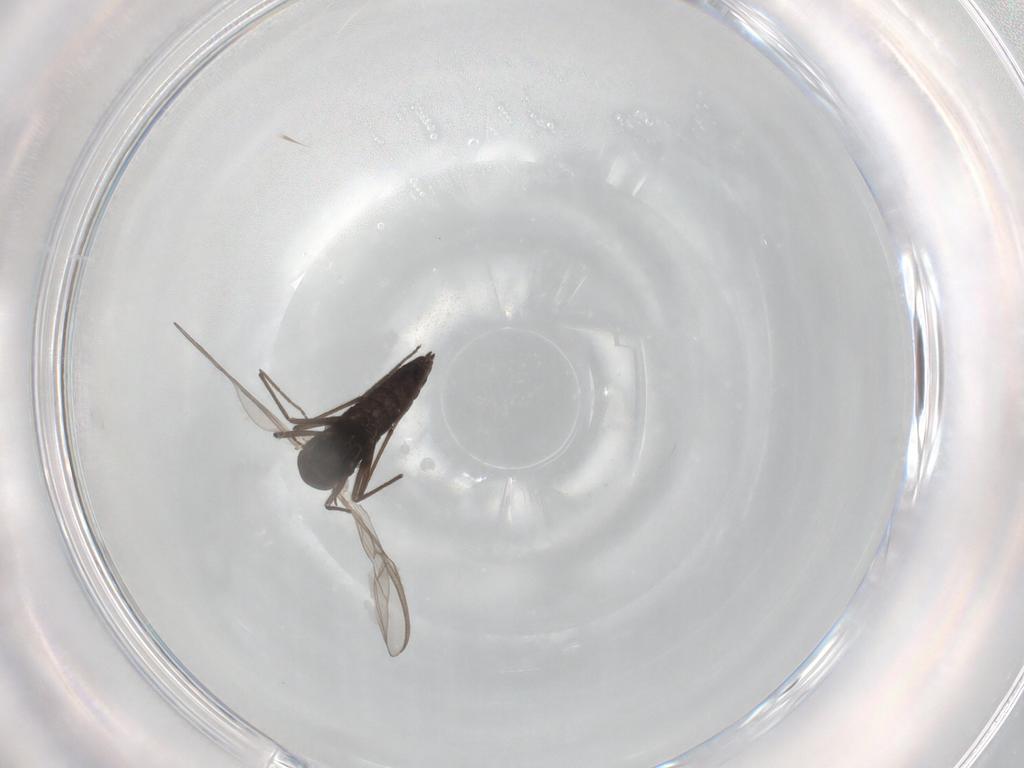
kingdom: Animalia
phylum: Arthropoda
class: Insecta
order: Diptera
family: Chironomidae
